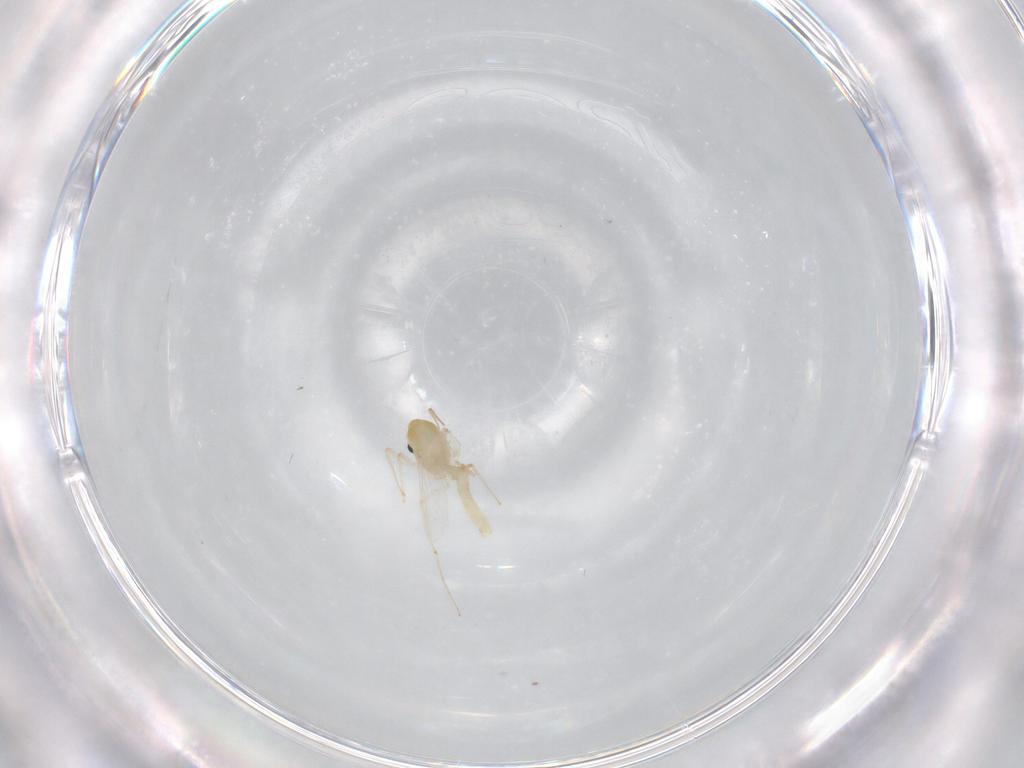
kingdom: Animalia
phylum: Arthropoda
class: Insecta
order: Diptera
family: Chironomidae
